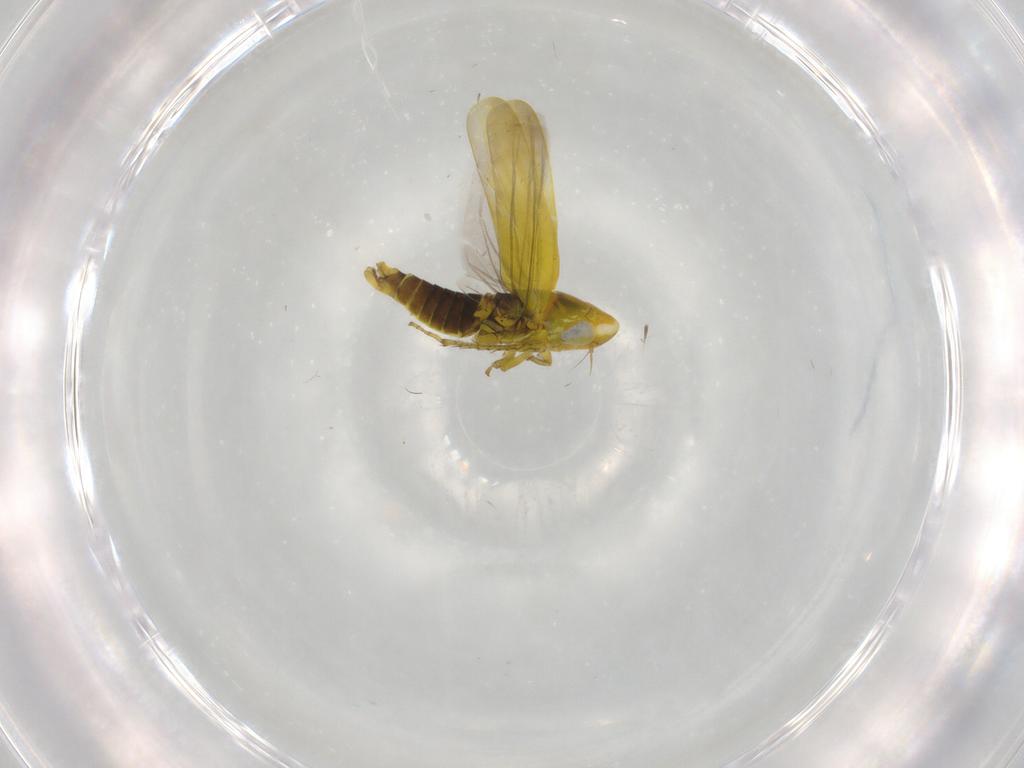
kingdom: Animalia
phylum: Arthropoda
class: Insecta
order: Hemiptera
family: Cicadellidae
